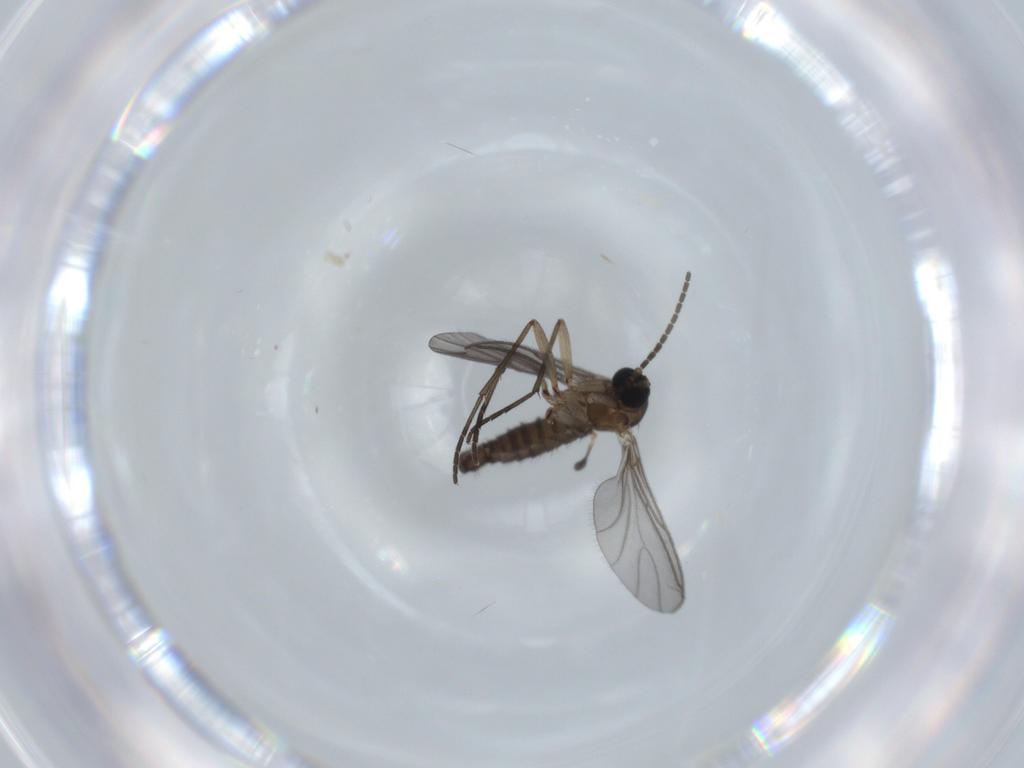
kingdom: Animalia
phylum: Arthropoda
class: Insecta
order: Diptera
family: Sciaridae
